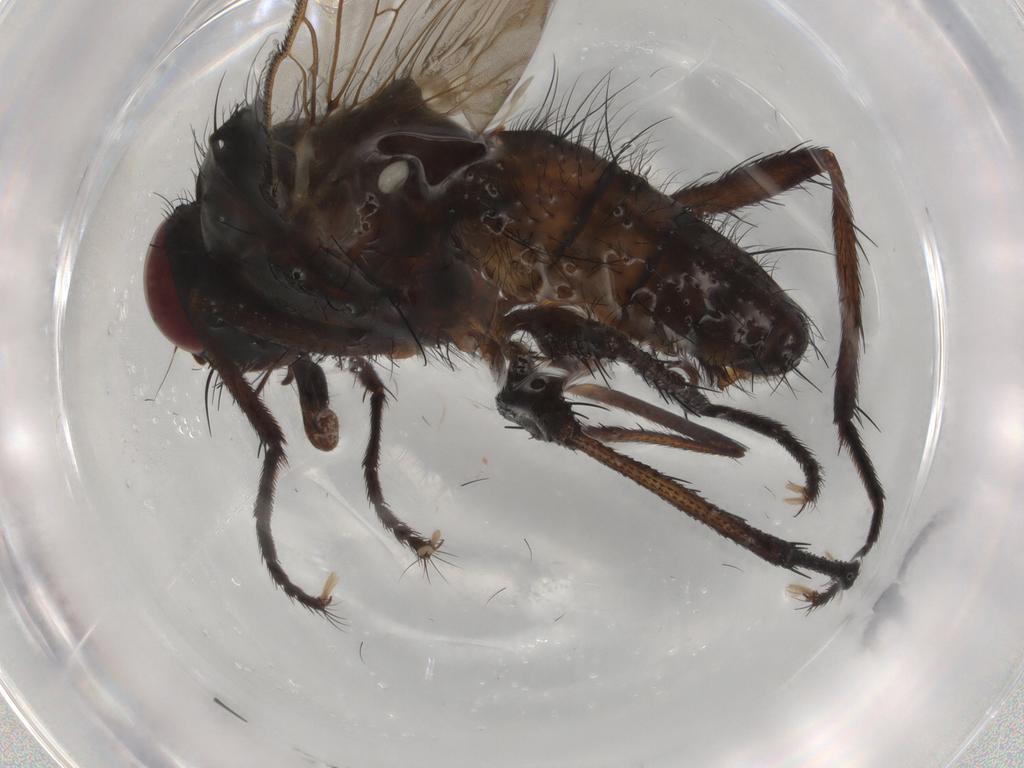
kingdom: Animalia
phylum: Arthropoda
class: Insecta
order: Diptera
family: Anthomyiidae
